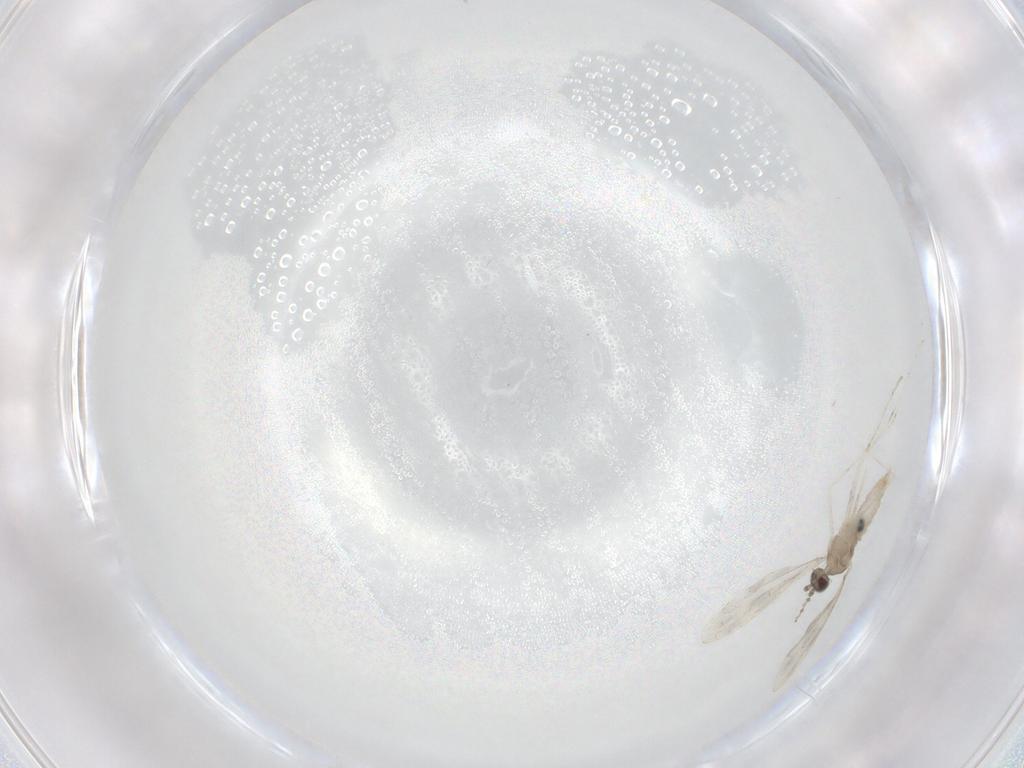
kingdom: Animalia
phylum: Arthropoda
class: Insecta
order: Diptera
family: Cecidomyiidae
